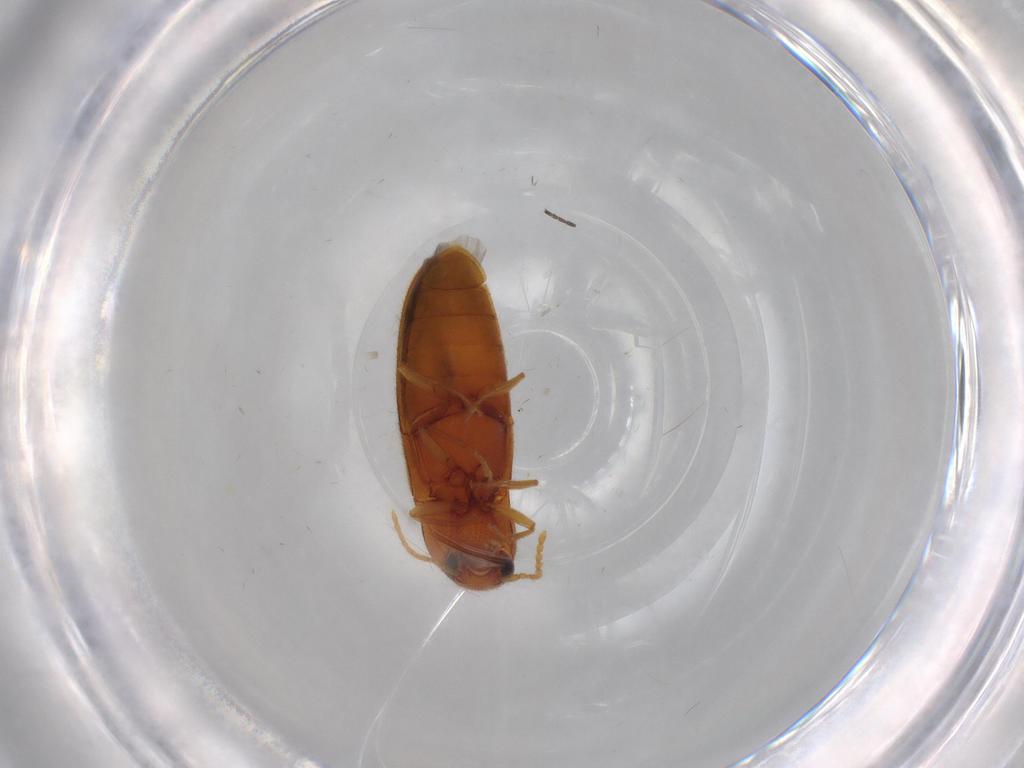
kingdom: Animalia
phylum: Arthropoda
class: Insecta
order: Coleoptera
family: Elateridae
